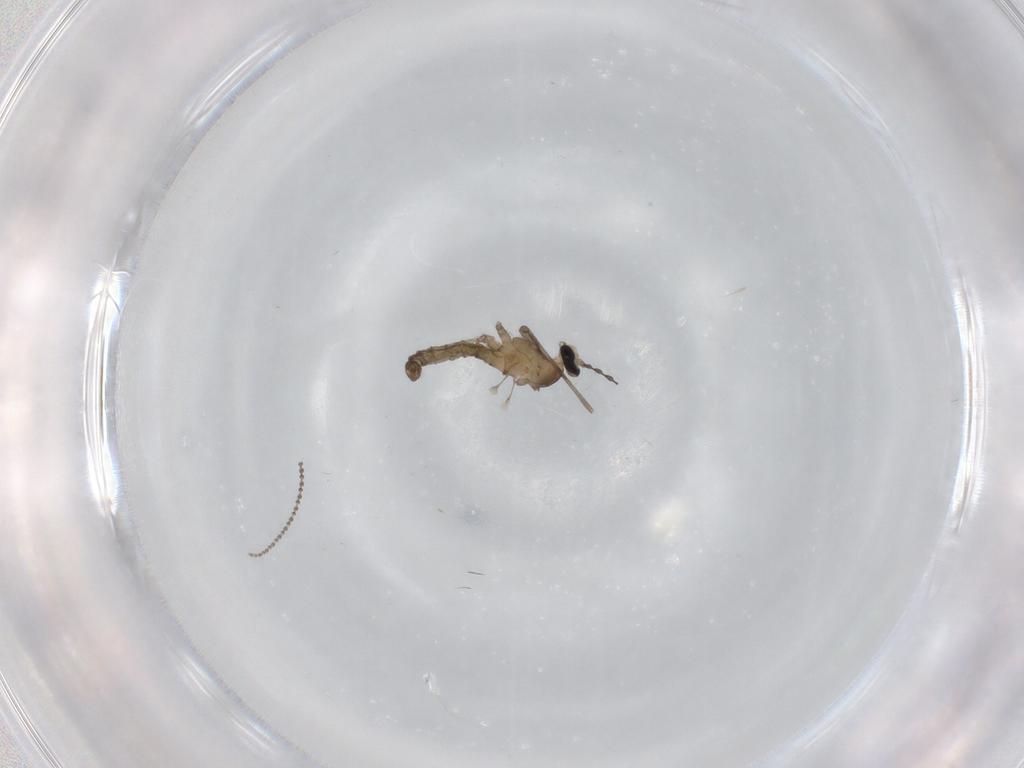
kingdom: Animalia
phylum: Arthropoda
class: Insecta
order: Diptera
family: Cecidomyiidae
